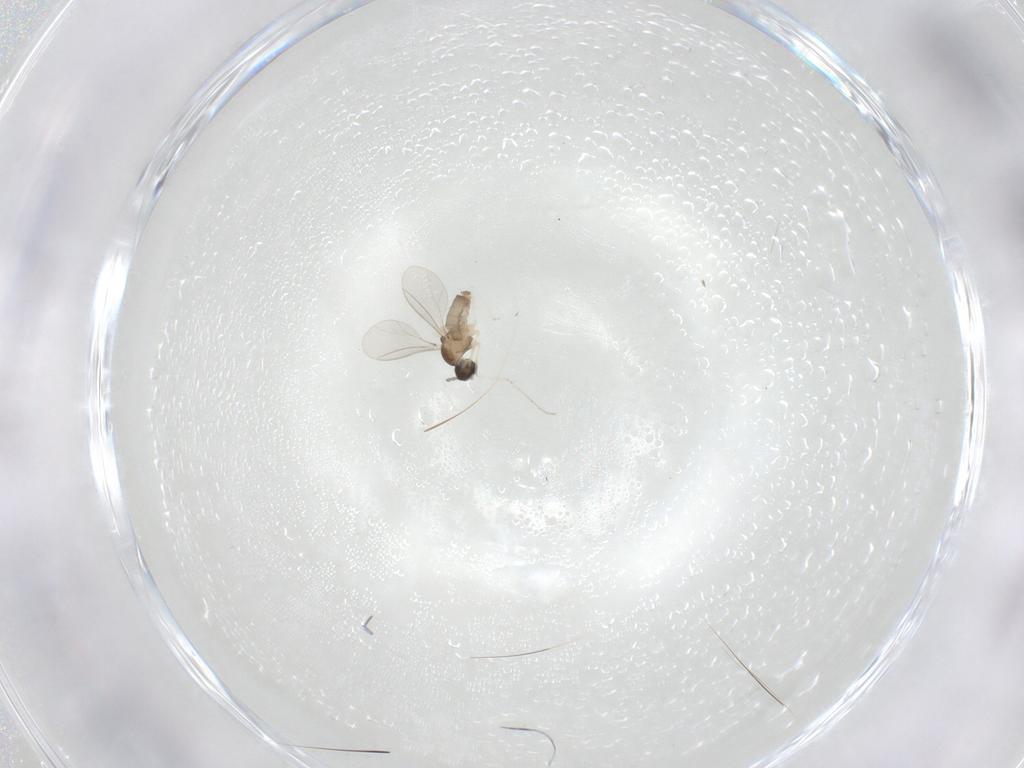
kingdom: Animalia
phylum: Arthropoda
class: Insecta
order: Diptera
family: Cecidomyiidae
